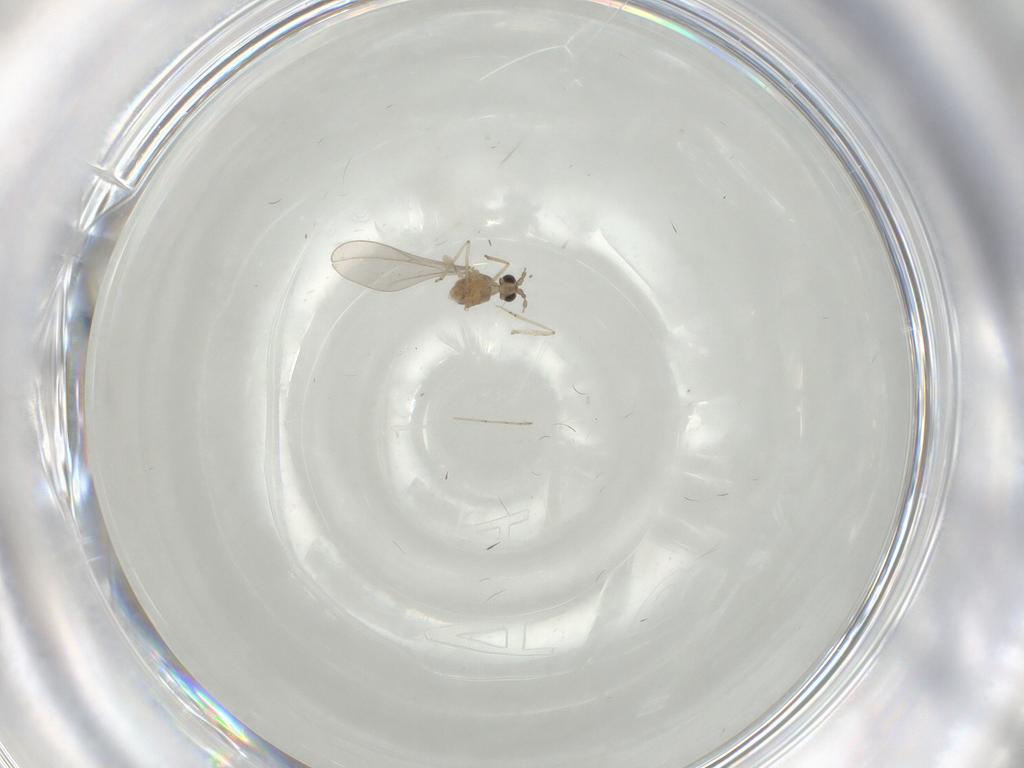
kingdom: Animalia
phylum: Arthropoda
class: Insecta
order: Diptera
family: Cecidomyiidae
